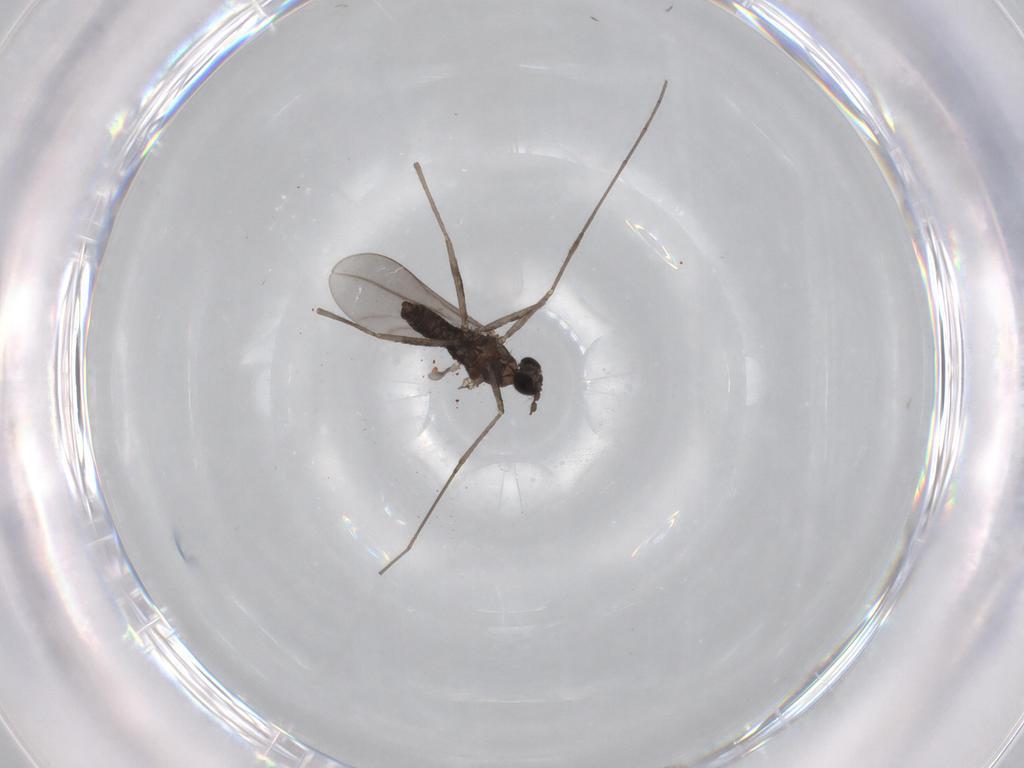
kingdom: Animalia
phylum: Arthropoda
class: Insecta
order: Diptera
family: Cecidomyiidae
